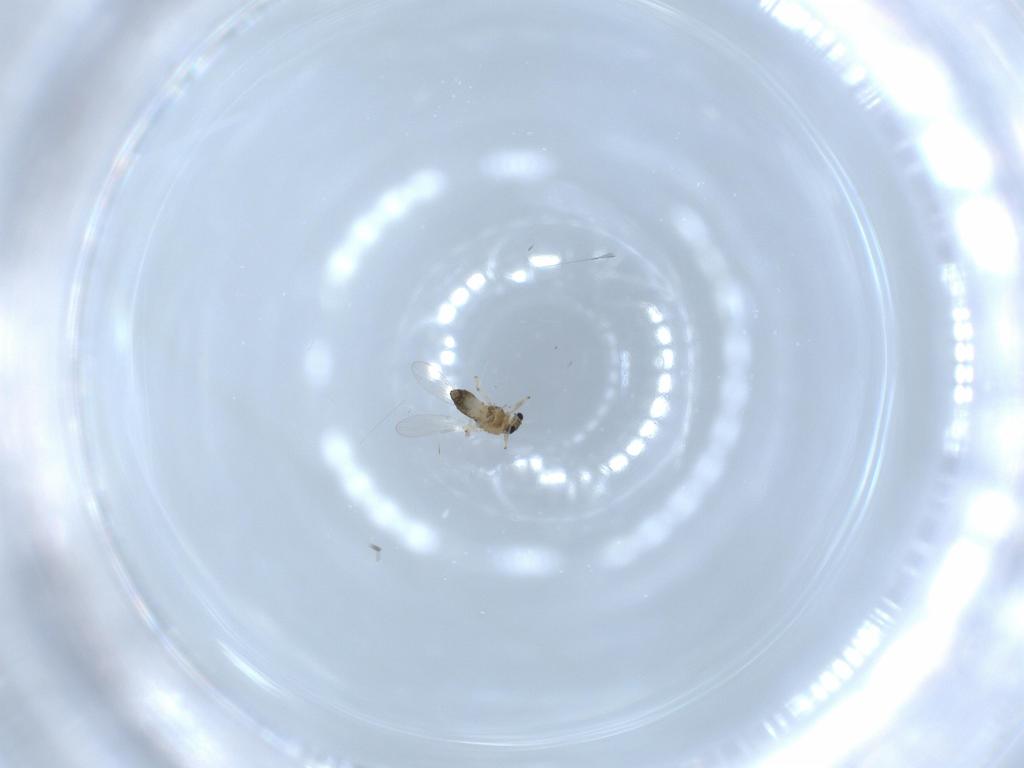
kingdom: Animalia
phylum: Arthropoda
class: Insecta
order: Diptera
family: Chironomidae
